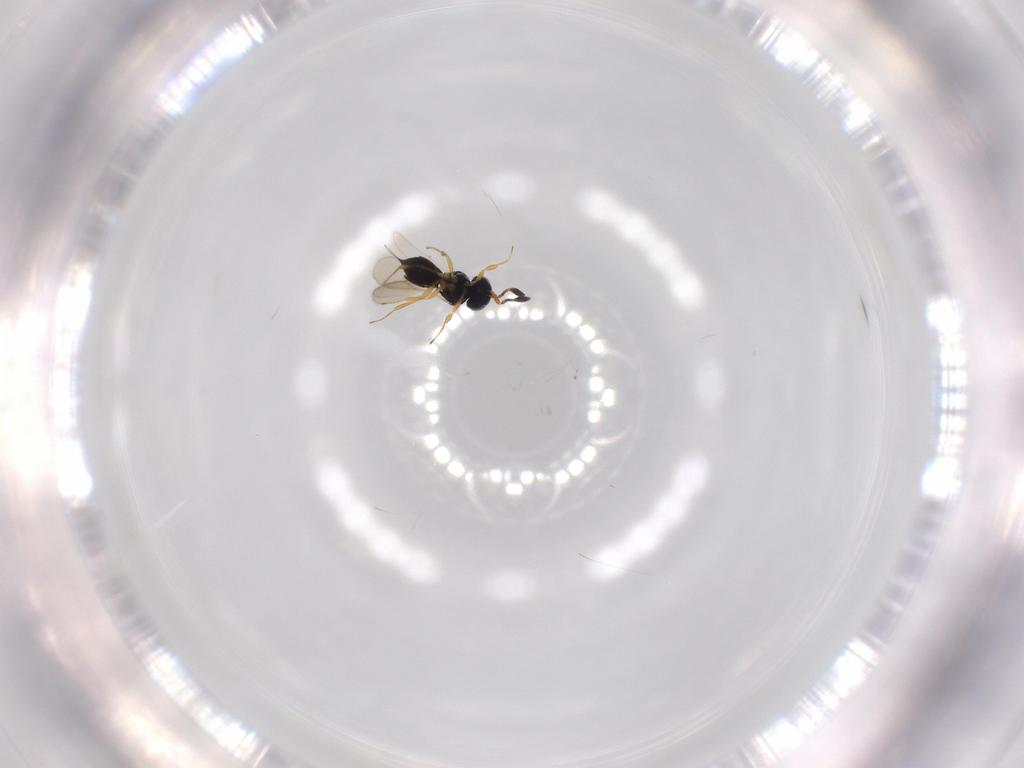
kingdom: Animalia
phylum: Arthropoda
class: Insecta
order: Hymenoptera
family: Scelionidae
